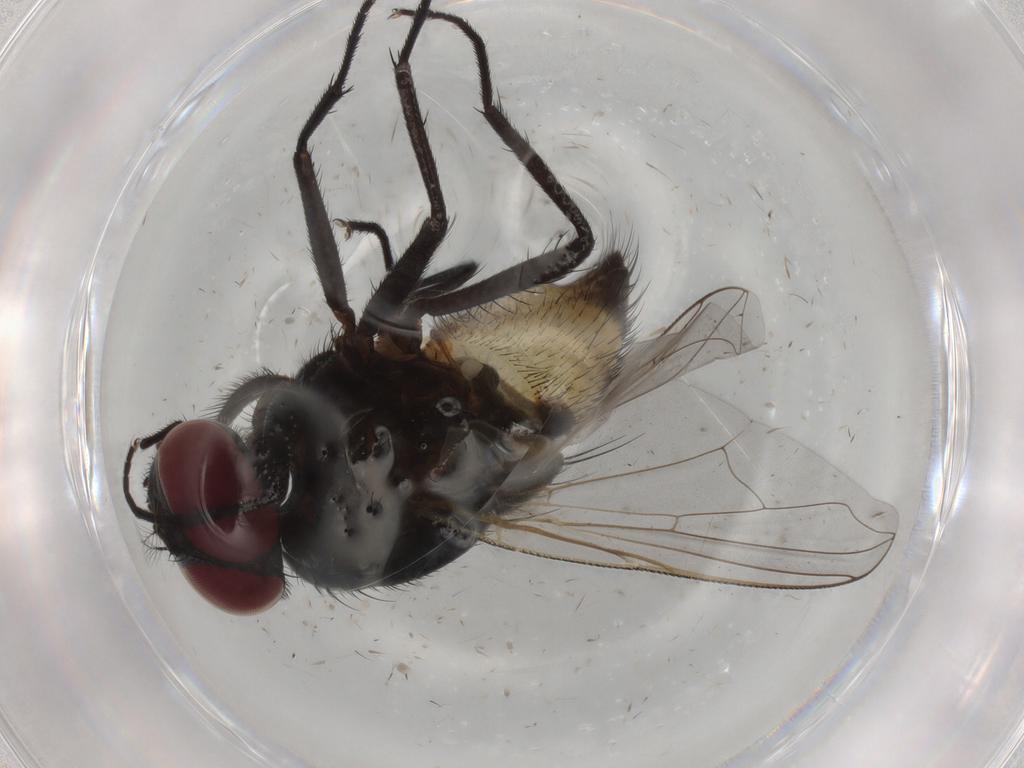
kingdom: Animalia
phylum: Arthropoda
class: Insecta
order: Diptera
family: Muscidae
